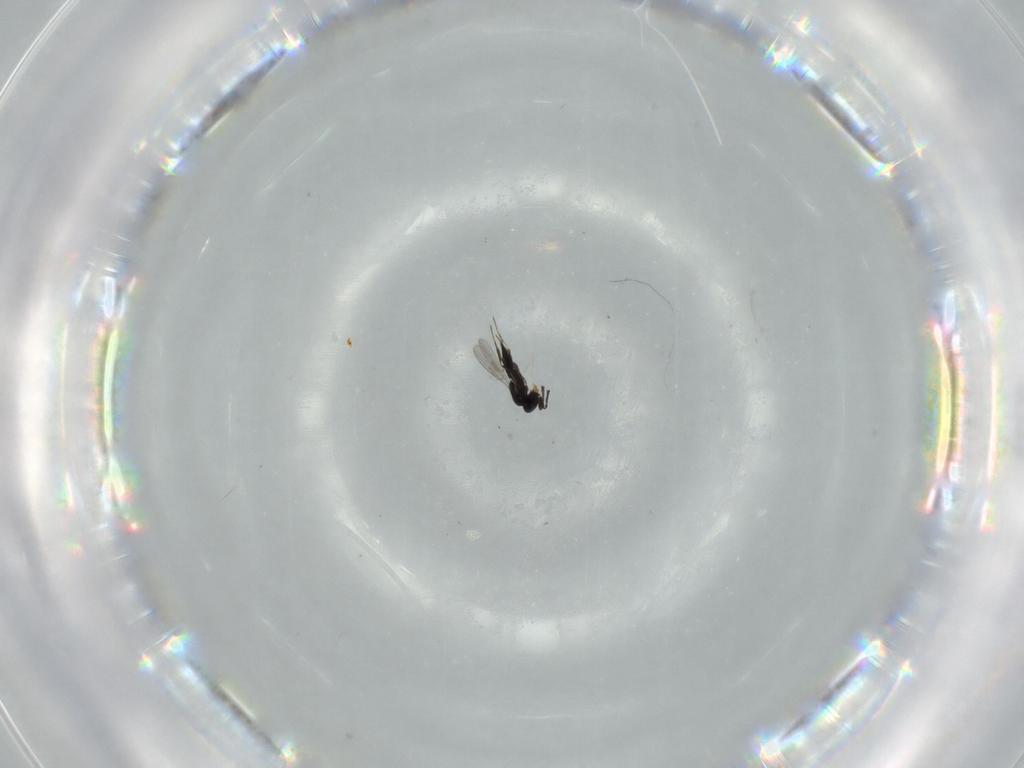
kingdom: Animalia
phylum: Arthropoda
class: Insecta
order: Hymenoptera
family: Scelionidae
